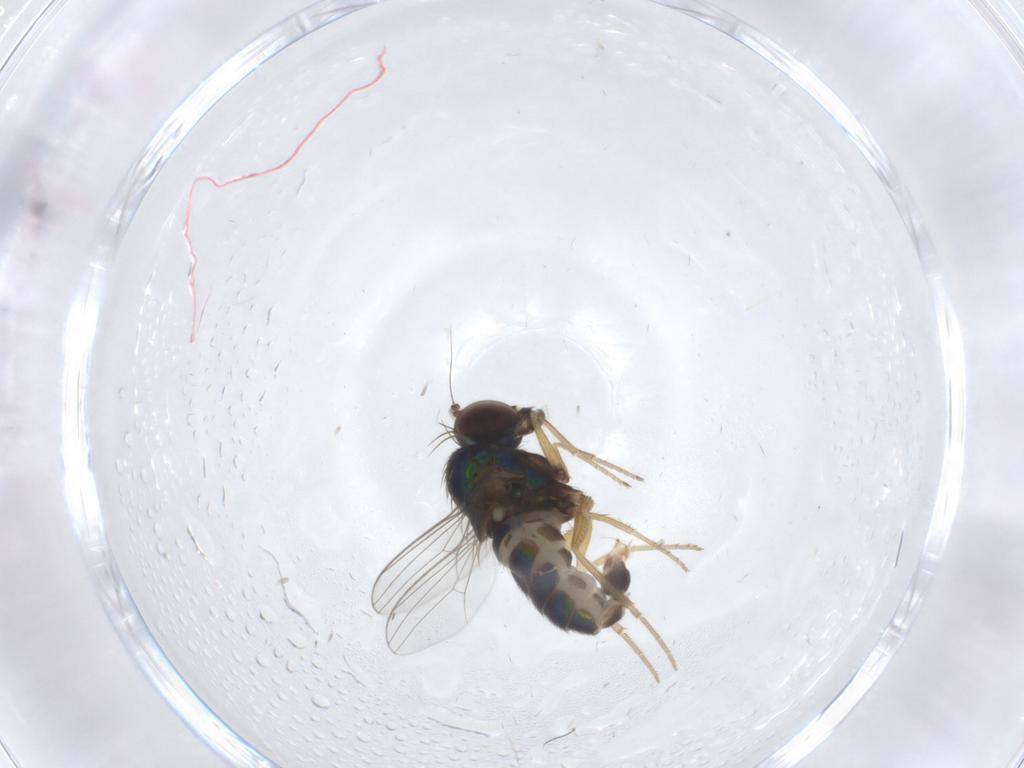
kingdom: Animalia
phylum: Arthropoda
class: Insecta
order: Diptera
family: Dolichopodidae
